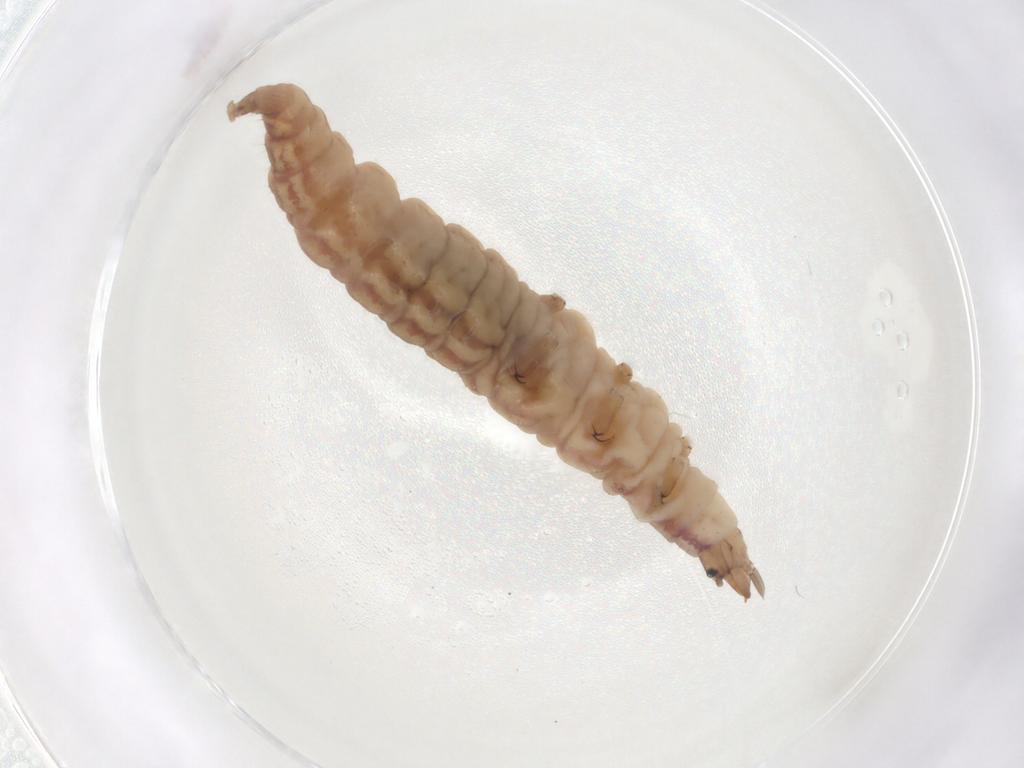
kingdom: Animalia
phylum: Arthropoda
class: Insecta
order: Neuroptera
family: Hemerobiidae
